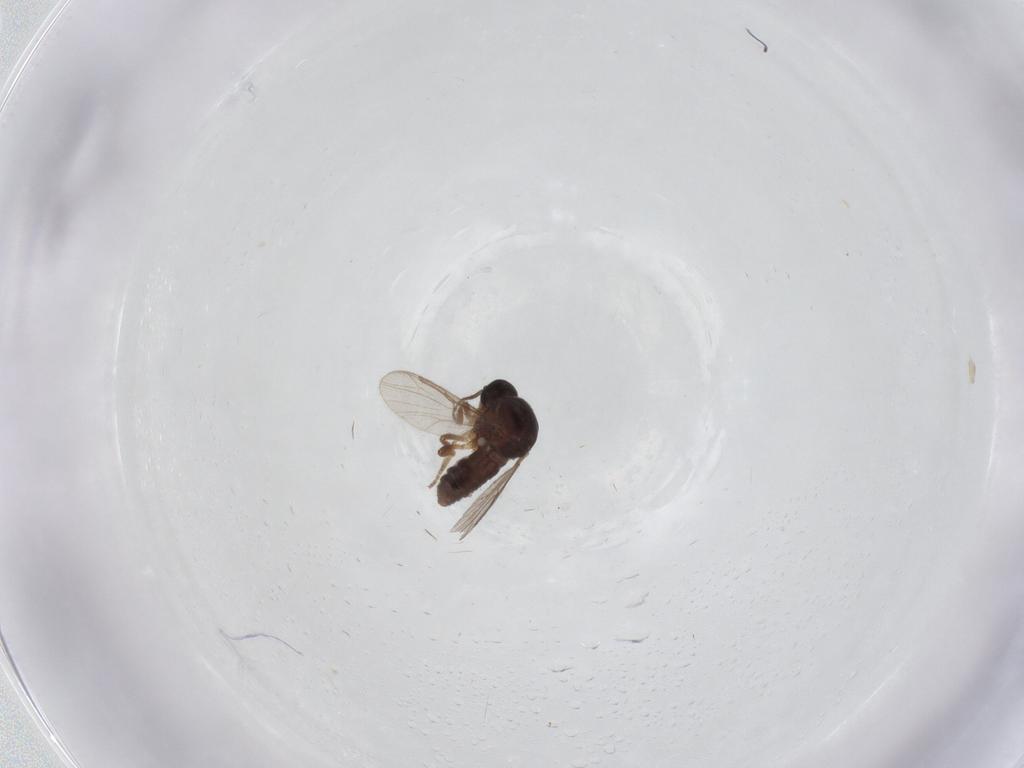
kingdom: Animalia
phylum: Arthropoda
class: Insecta
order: Diptera
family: Ceratopogonidae
